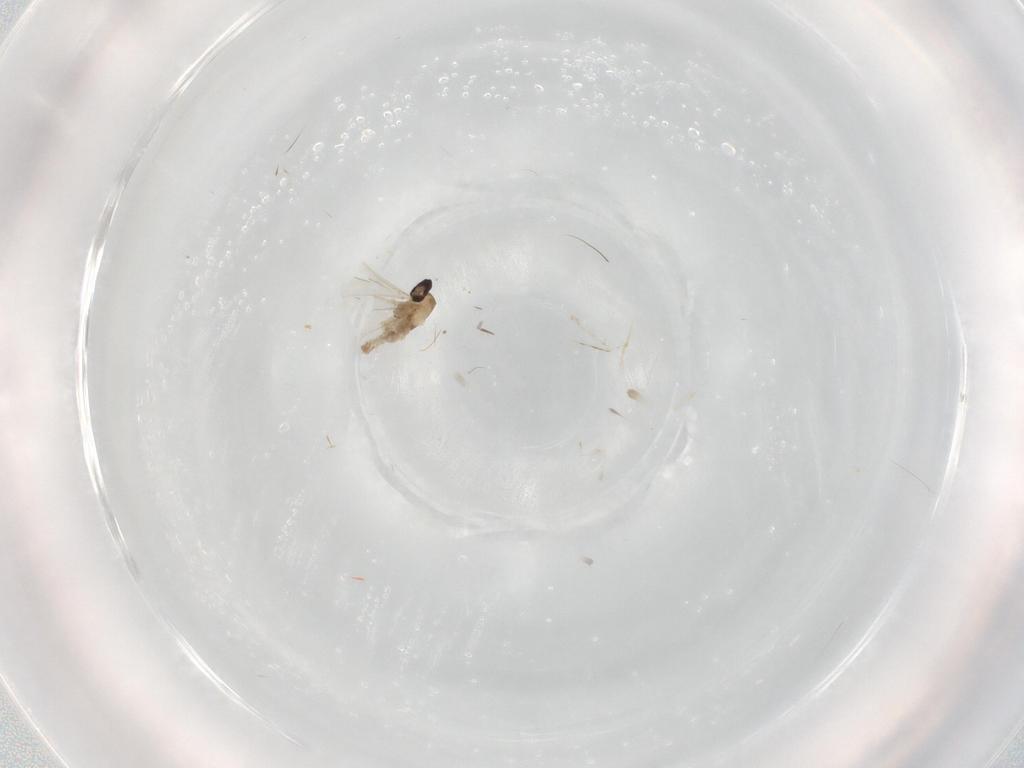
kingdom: Animalia
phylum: Arthropoda
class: Insecta
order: Diptera
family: Cecidomyiidae
